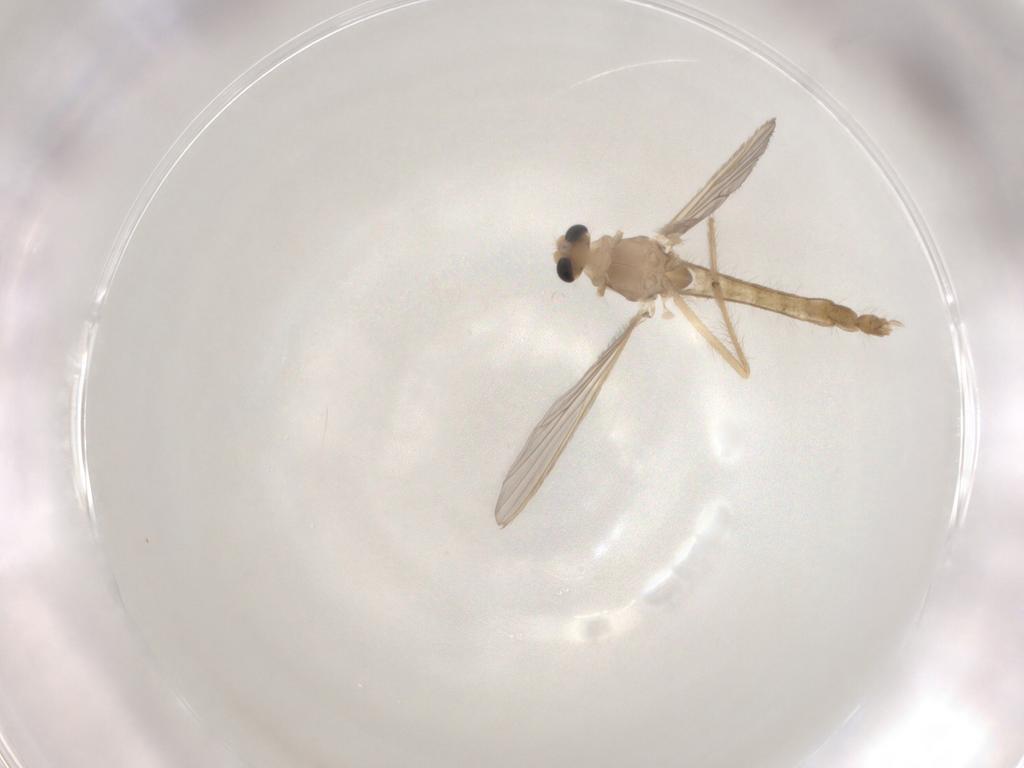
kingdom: Animalia
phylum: Arthropoda
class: Insecta
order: Diptera
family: Chironomidae
